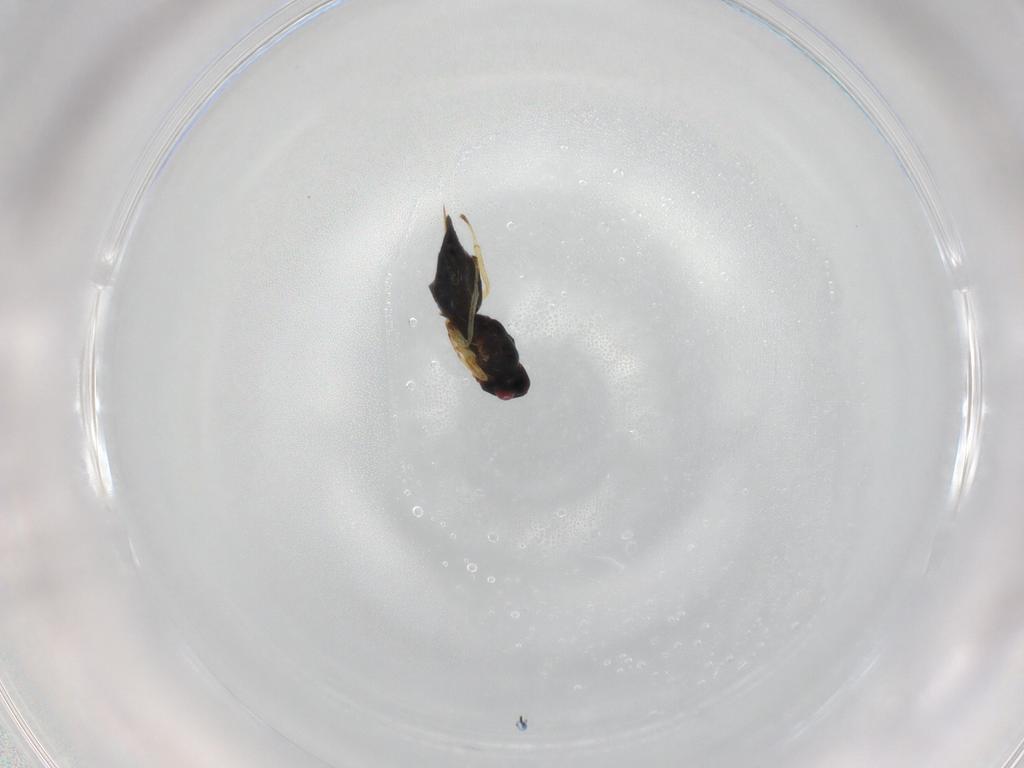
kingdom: Animalia
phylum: Arthropoda
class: Insecta
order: Hymenoptera
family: Eulophidae
